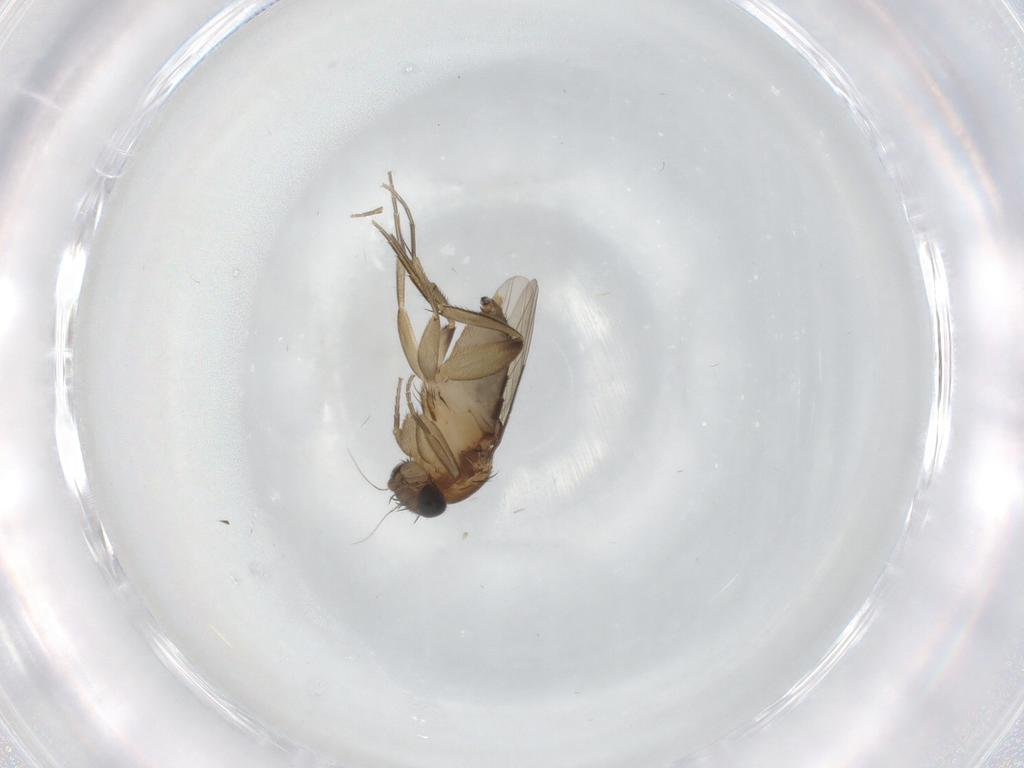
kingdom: Animalia
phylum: Arthropoda
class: Insecta
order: Diptera
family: Phoridae
